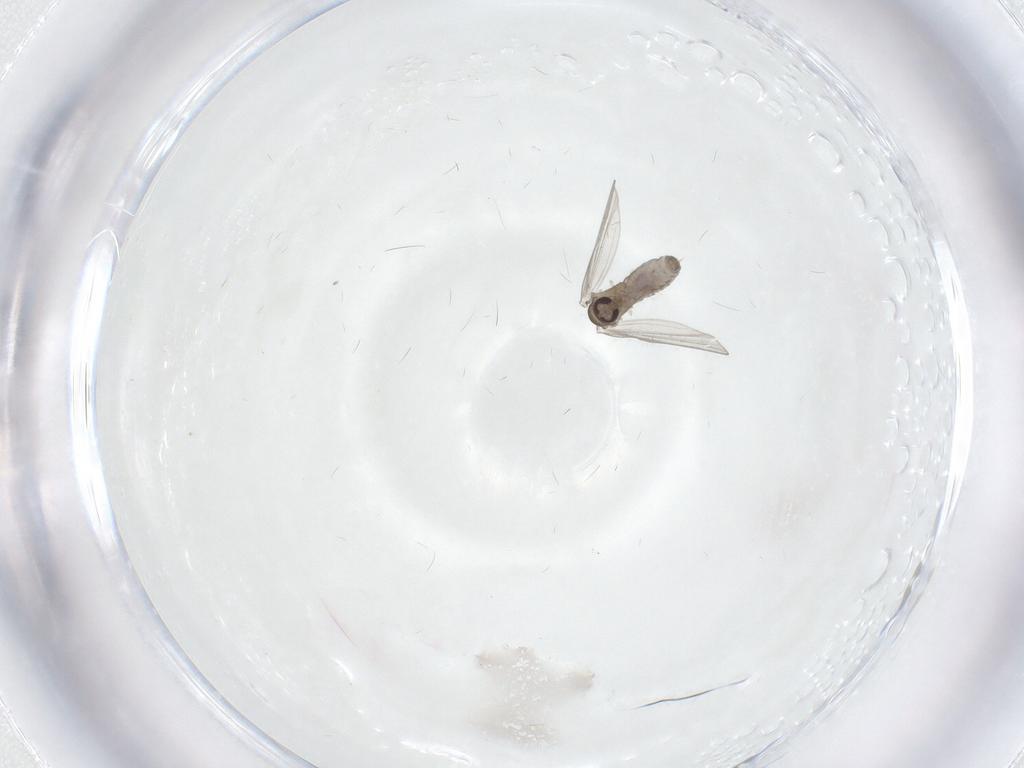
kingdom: Animalia
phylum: Arthropoda
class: Insecta
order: Diptera
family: Psychodidae
